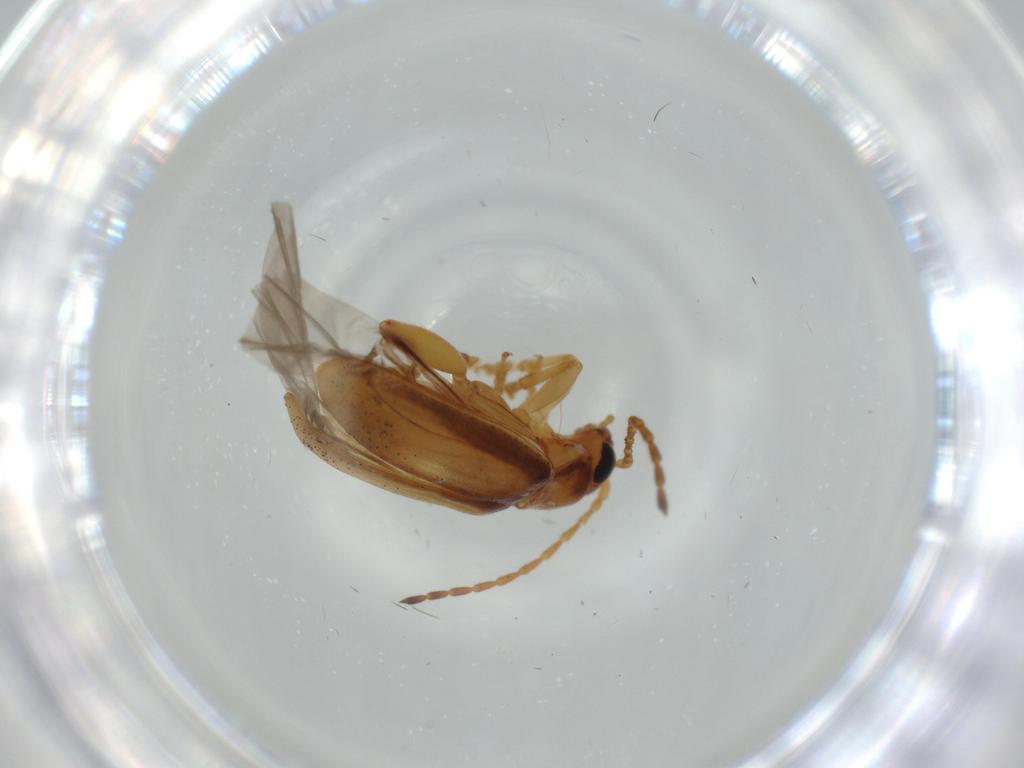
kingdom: Animalia
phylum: Arthropoda
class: Insecta
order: Coleoptera
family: Chrysomelidae
